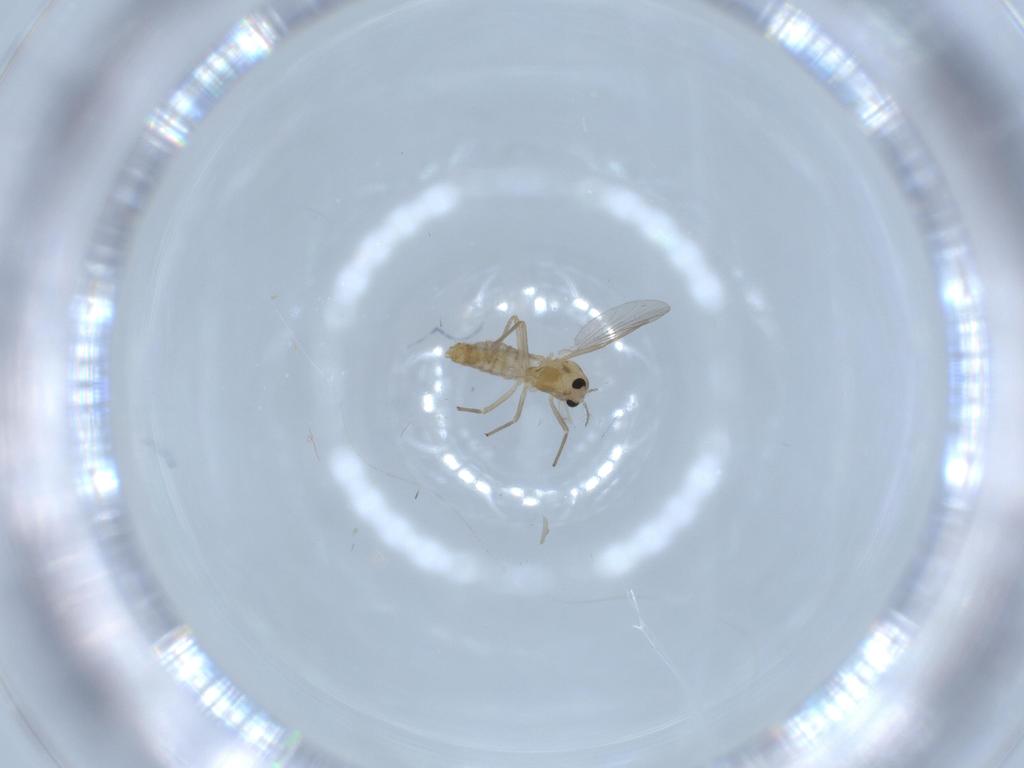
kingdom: Animalia
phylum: Arthropoda
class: Insecta
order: Diptera
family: Chironomidae
